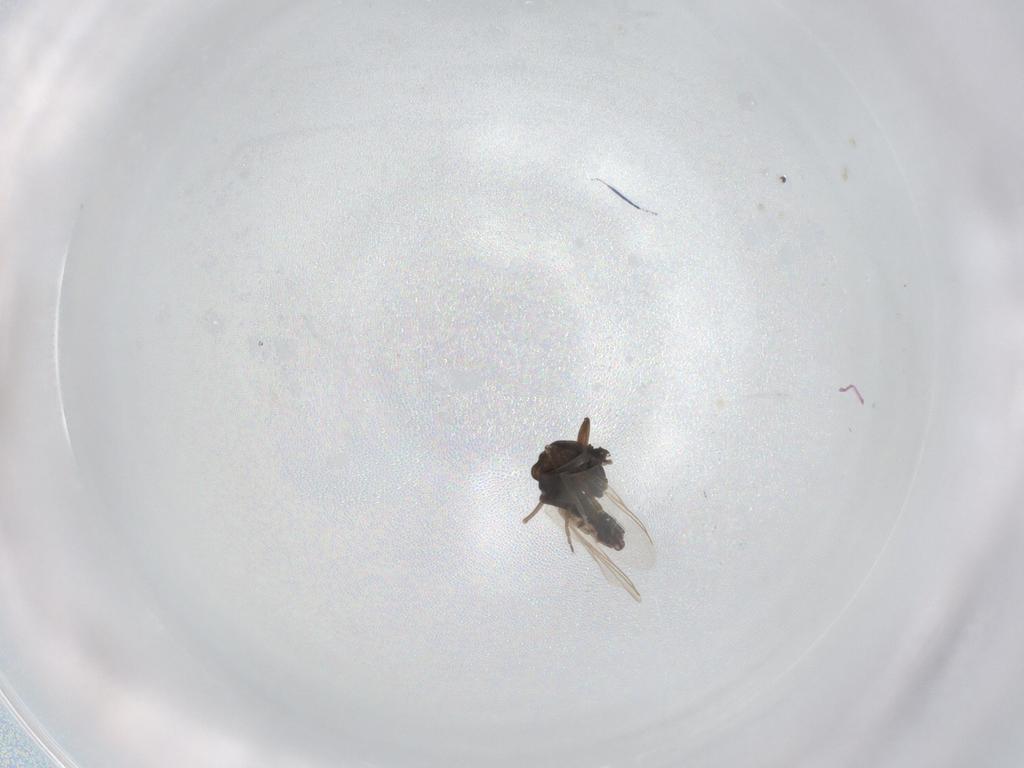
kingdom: Animalia
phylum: Arthropoda
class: Insecta
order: Diptera
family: Chironomidae
